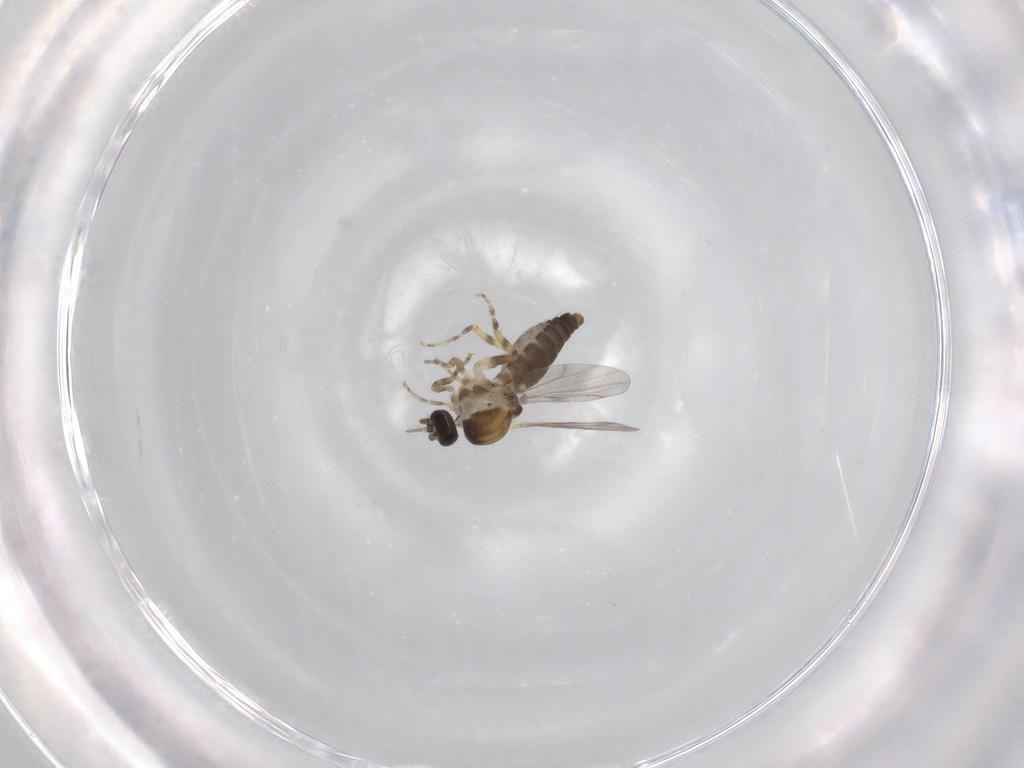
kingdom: Animalia
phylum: Arthropoda
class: Insecta
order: Diptera
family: Ceratopogonidae
